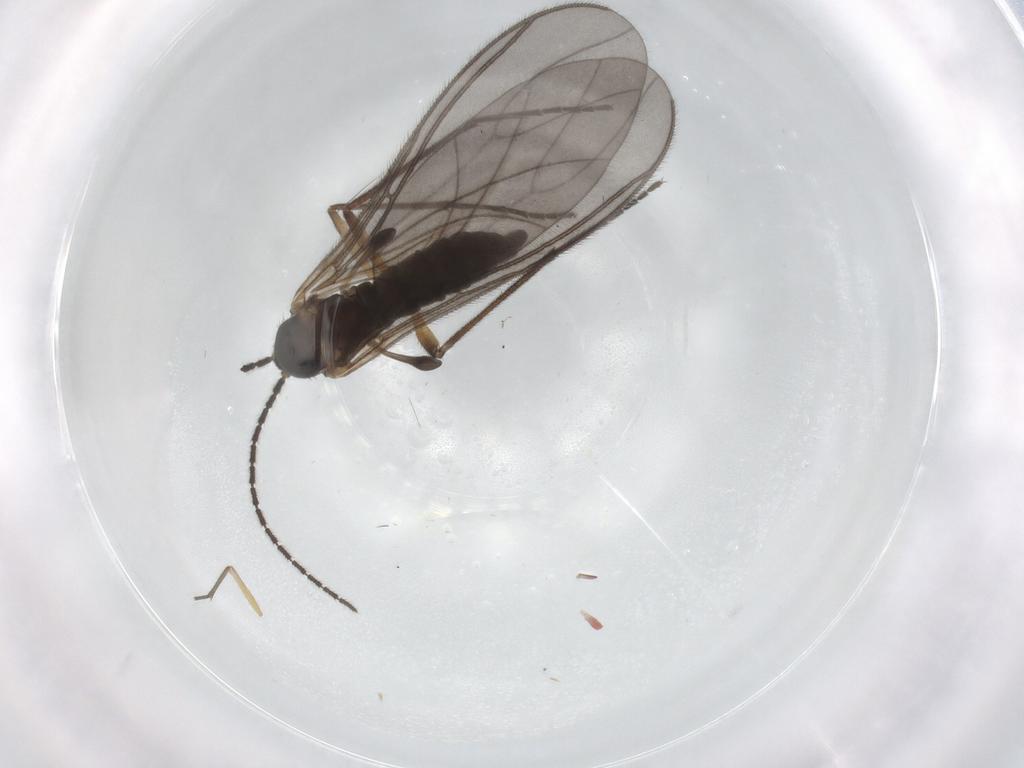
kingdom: Animalia
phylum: Arthropoda
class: Insecta
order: Diptera
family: Sciaridae
